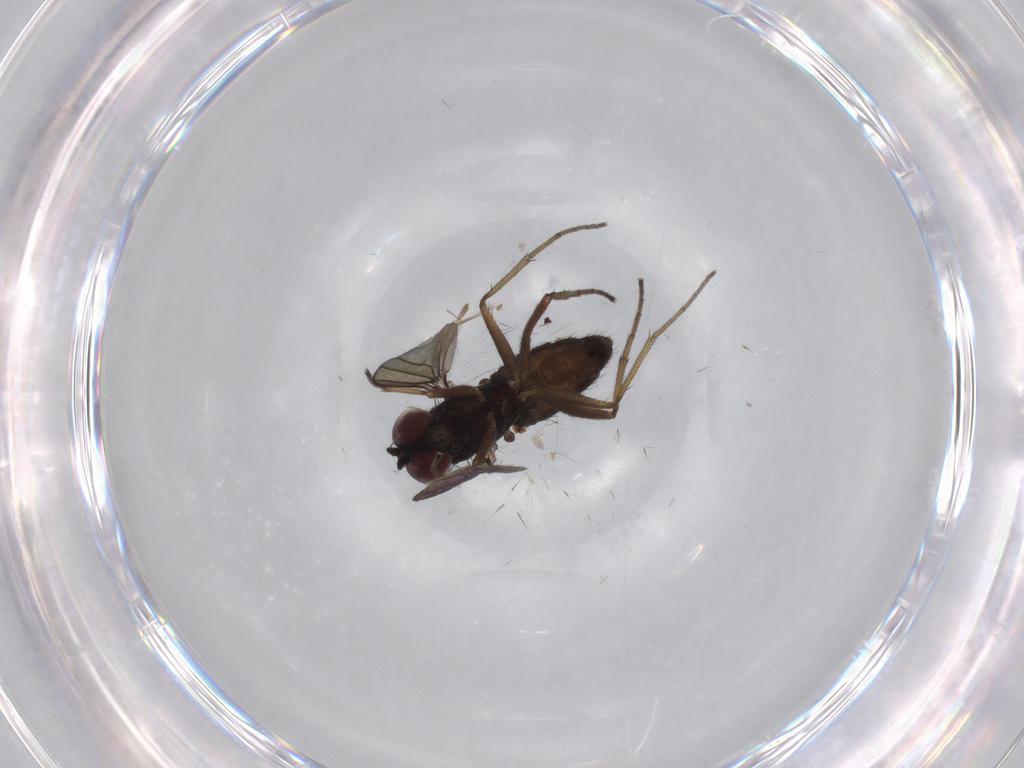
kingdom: Animalia
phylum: Arthropoda
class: Insecta
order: Diptera
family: Dolichopodidae
